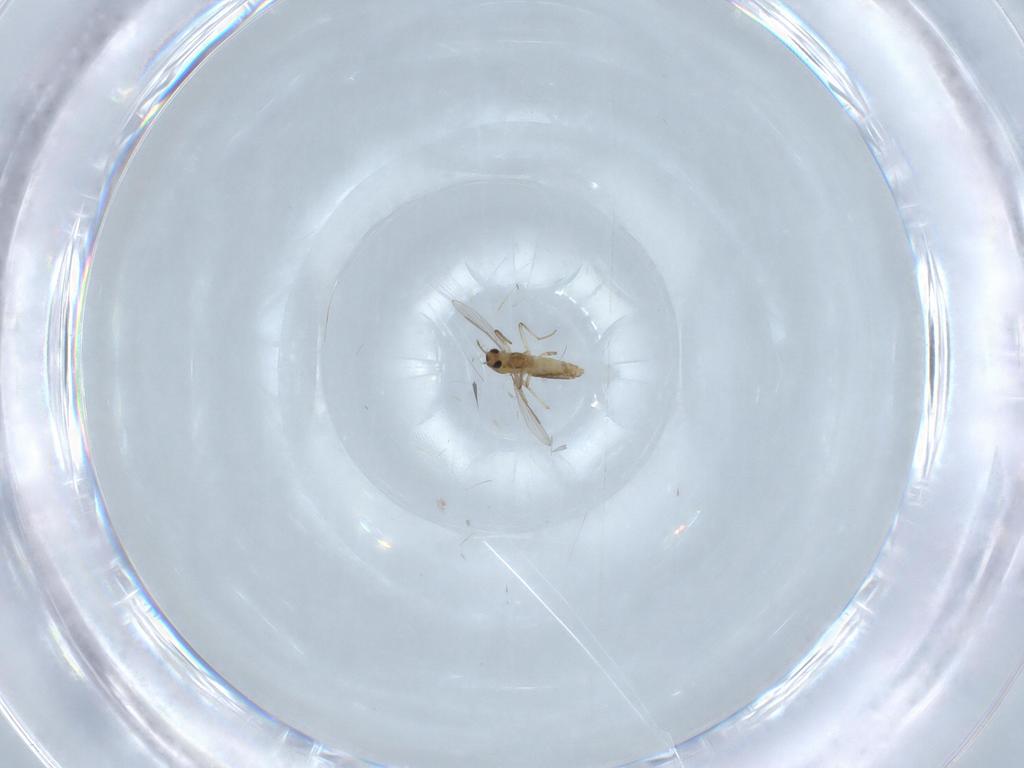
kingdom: Animalia
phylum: Arthropoda
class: Insecta
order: Diptera
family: Chironomidae
